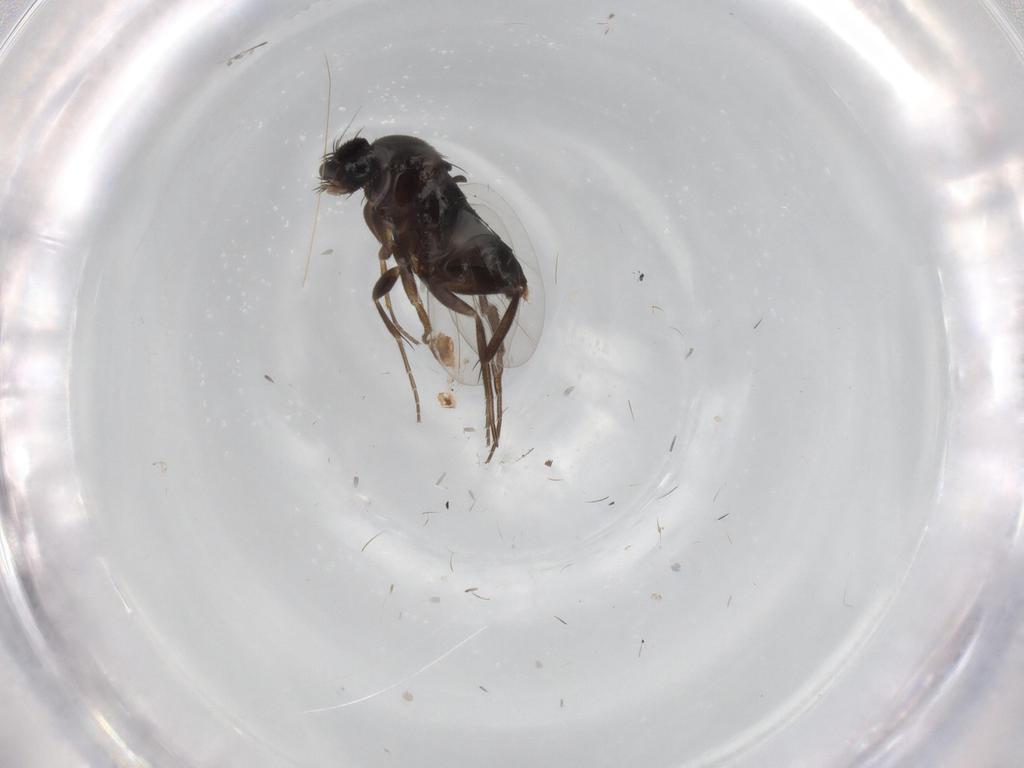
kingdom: Animalia
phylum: Arthropoda
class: Insecta
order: Diptera
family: Phoridae
